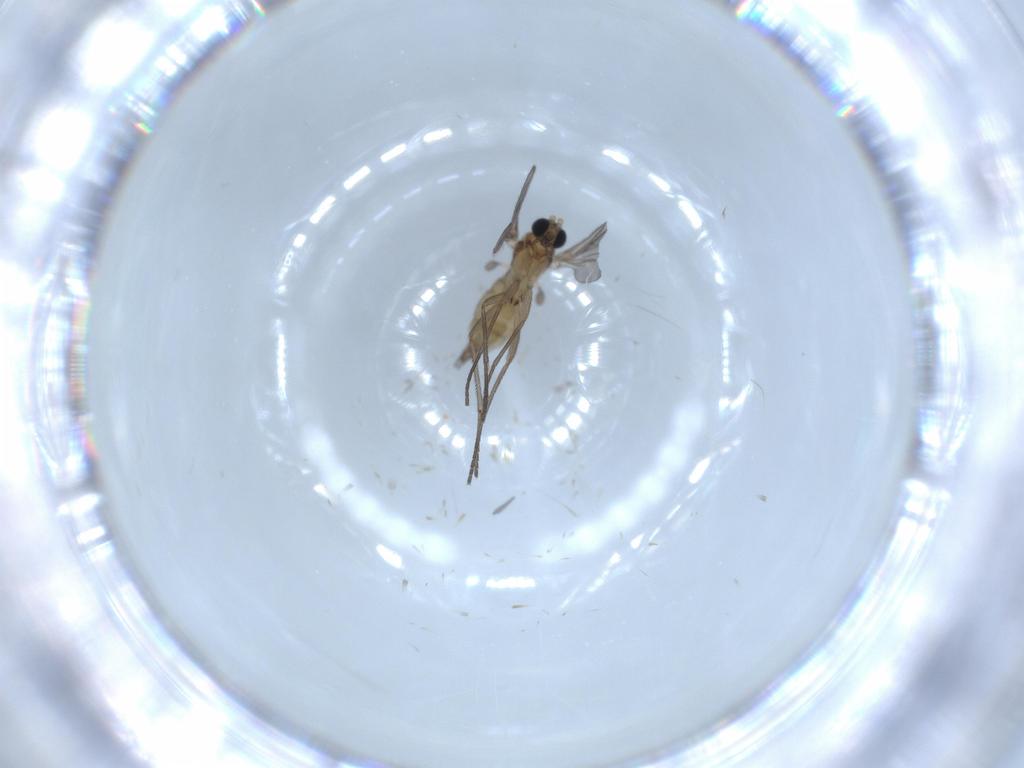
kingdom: Animalia
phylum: Arthropoda
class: Insecta
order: Diptera
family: Sciaridae
